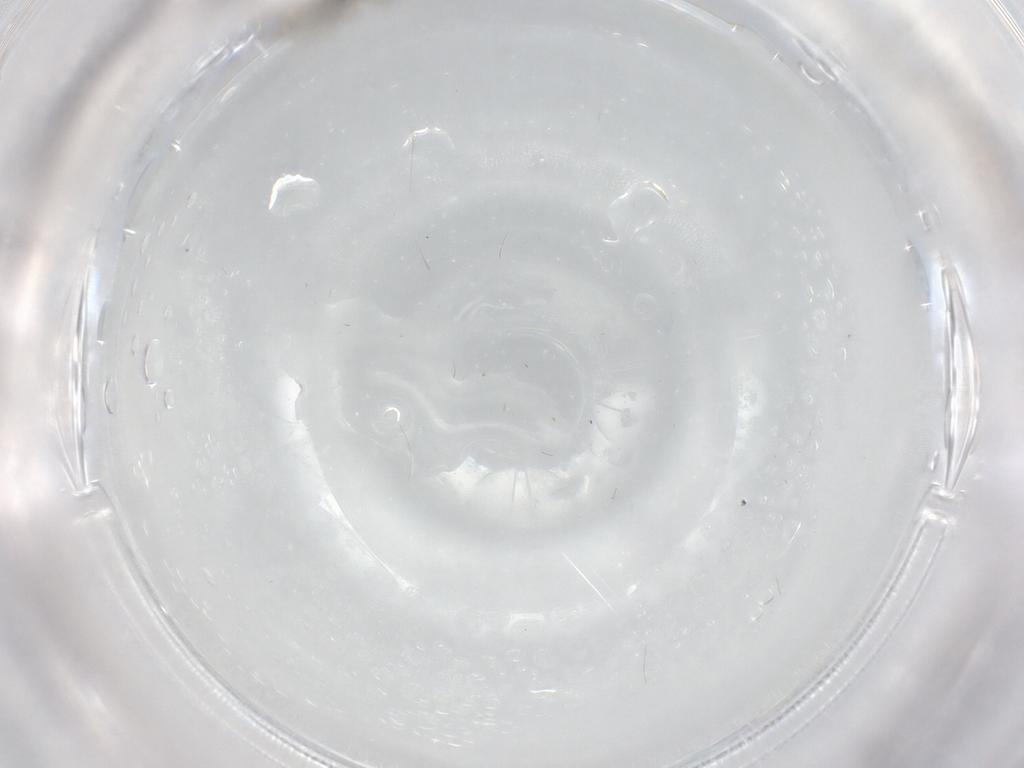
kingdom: Animalia
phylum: Arthropoda
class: Insecta
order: Diptera
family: Cecidomyiidae
